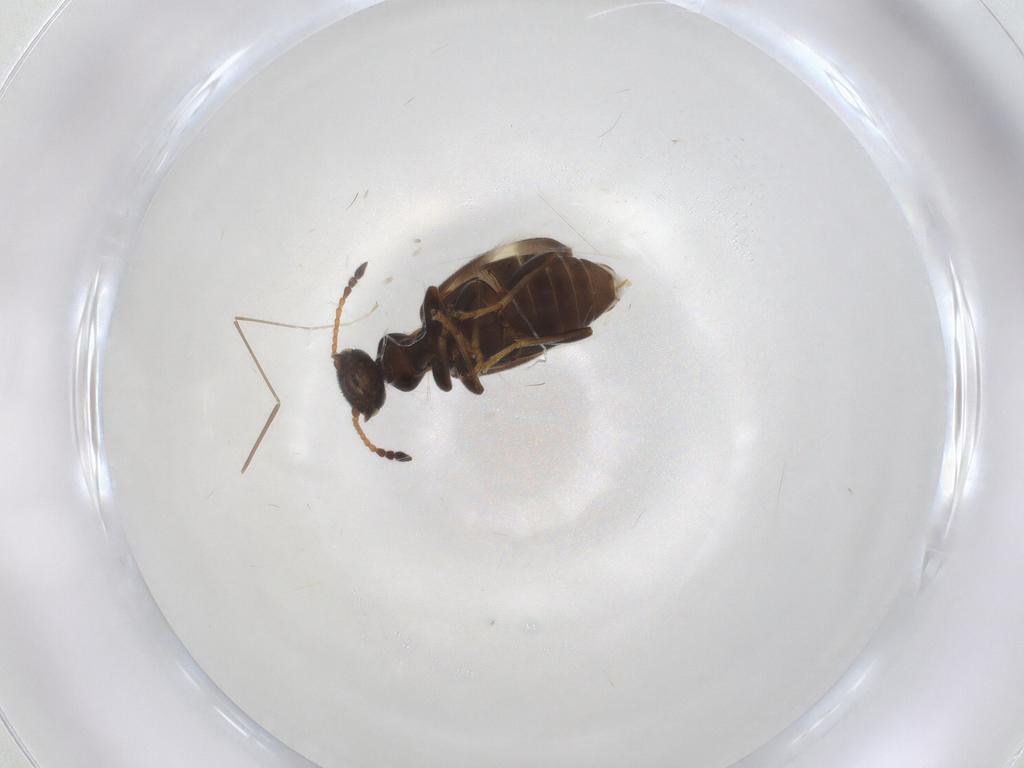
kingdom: Animalia
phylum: Arthropoda
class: Insecta
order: Coleoptera
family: Anthicidae
